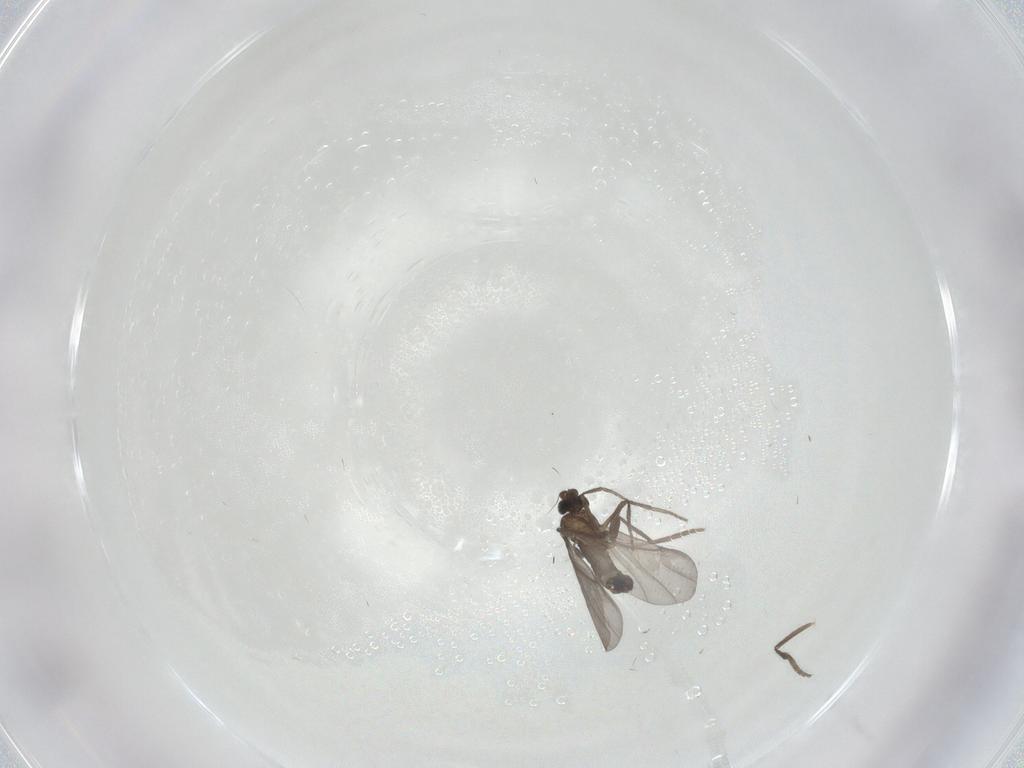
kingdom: Animalia
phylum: Arthropoda
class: Insecta
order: Diptera
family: Phoridae
